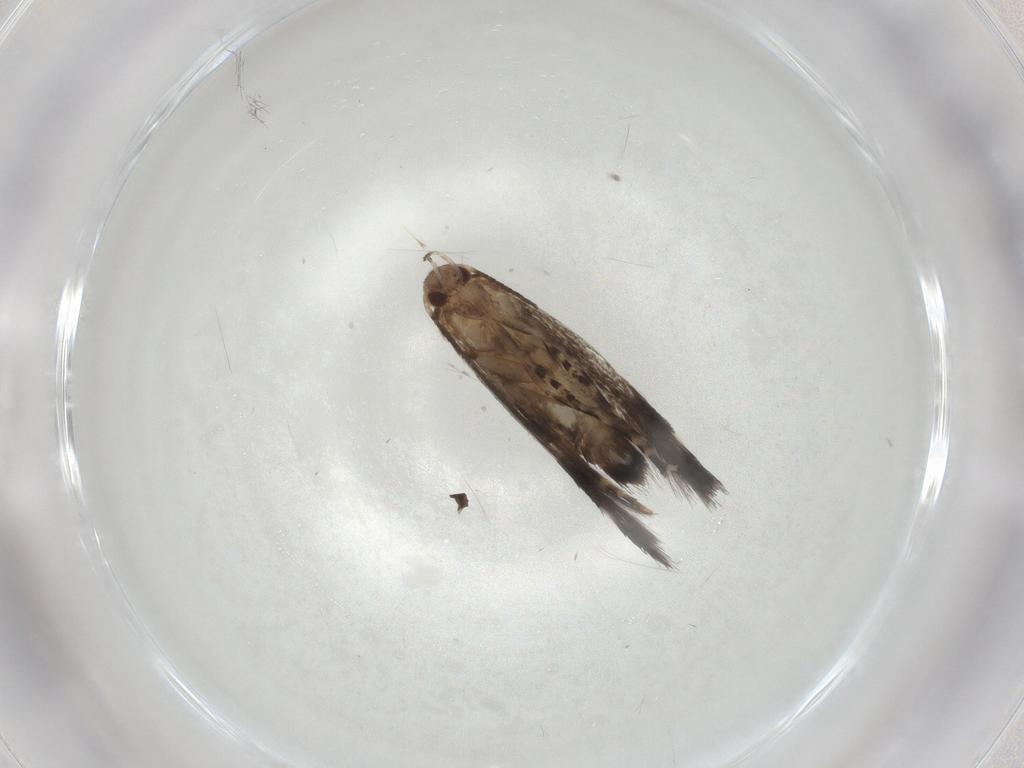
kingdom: Animalia
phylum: Arthropoda
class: Insecta
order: Lepidoptera
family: Elachistidae
